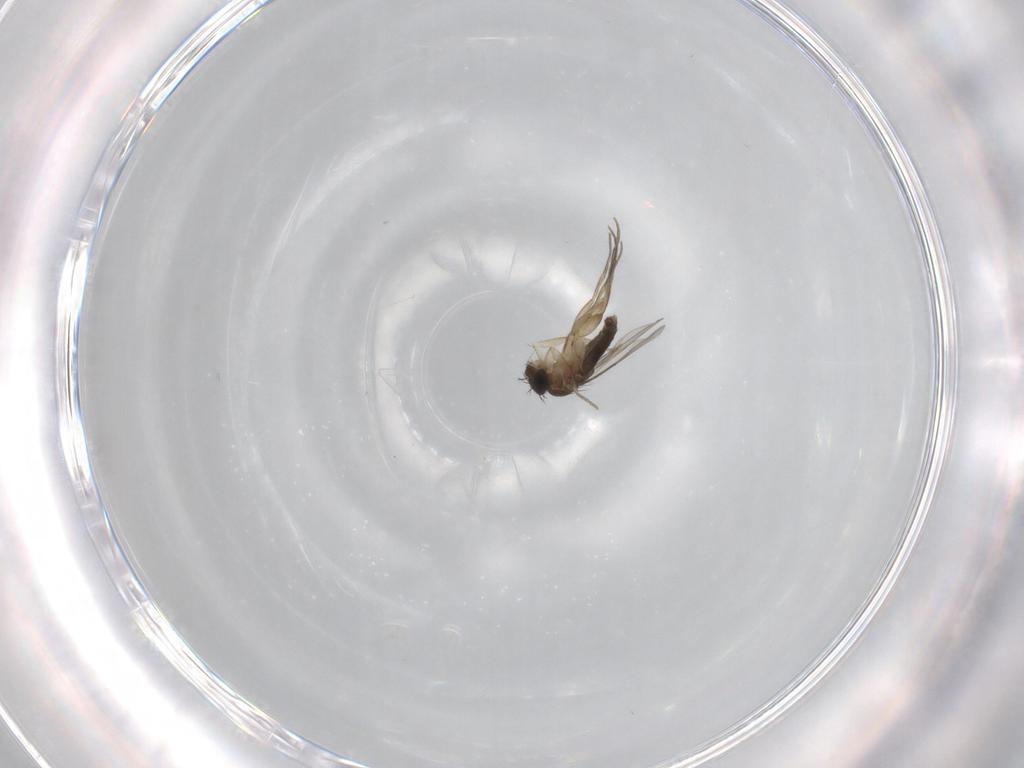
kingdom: Animalia
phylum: Arthropoda
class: Insecta
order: Diptera
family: Phoridae
